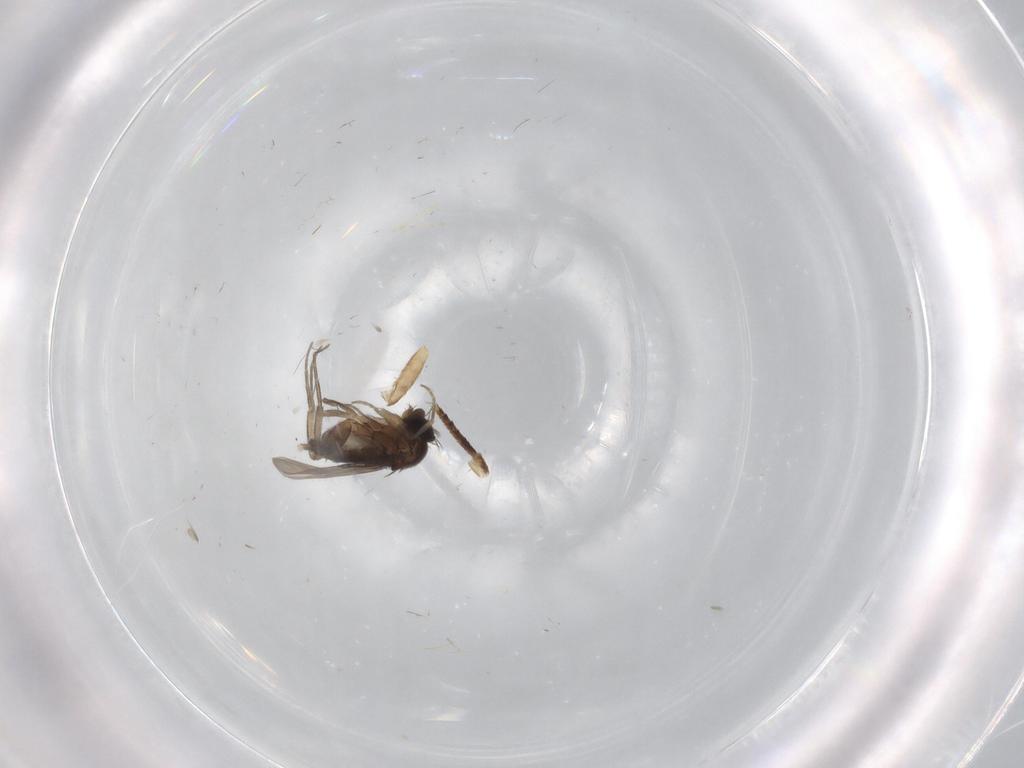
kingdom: Animalia
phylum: Arthropoda
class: Insecta
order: Diptera
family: Phoridae
